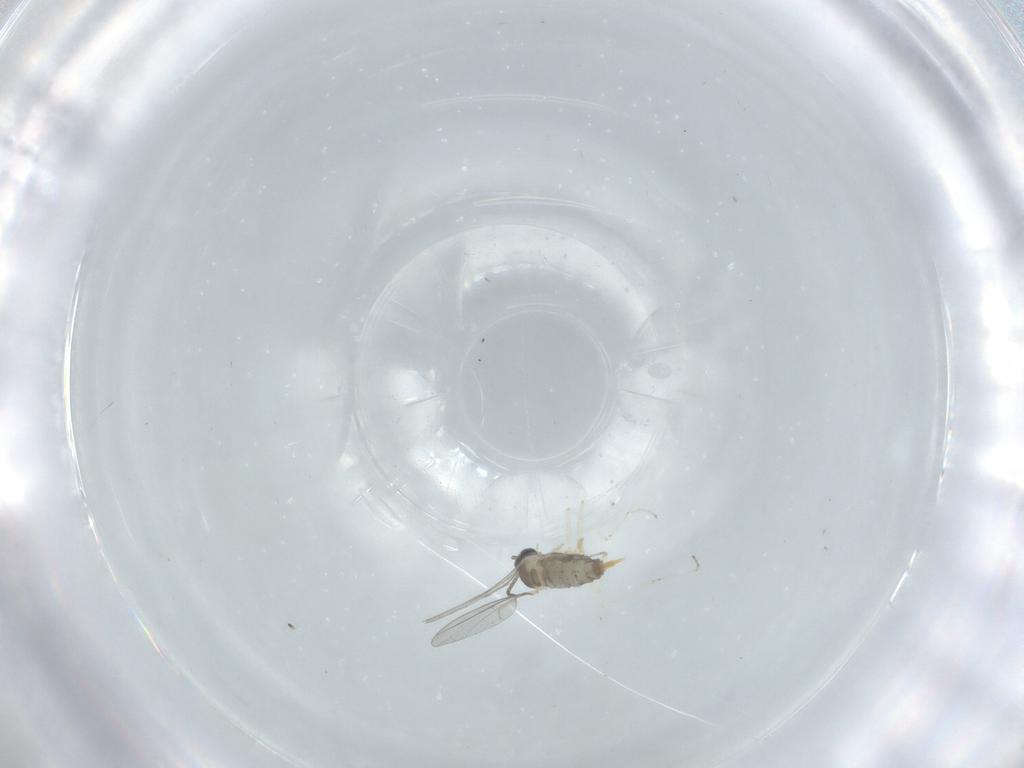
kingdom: Animalia
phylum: Arthropoda
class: Insecta
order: Diptera
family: Cecidomyiidae
